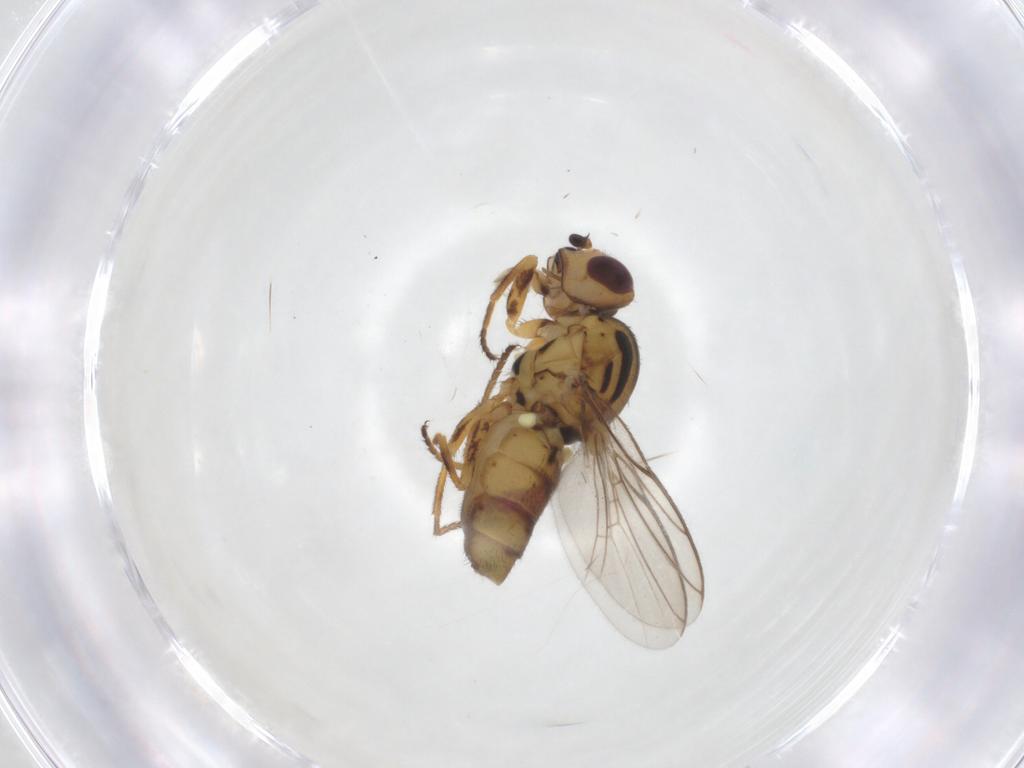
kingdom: Animalia
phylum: Arthropoda
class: Insecta
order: Diptera
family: Chloropidae
